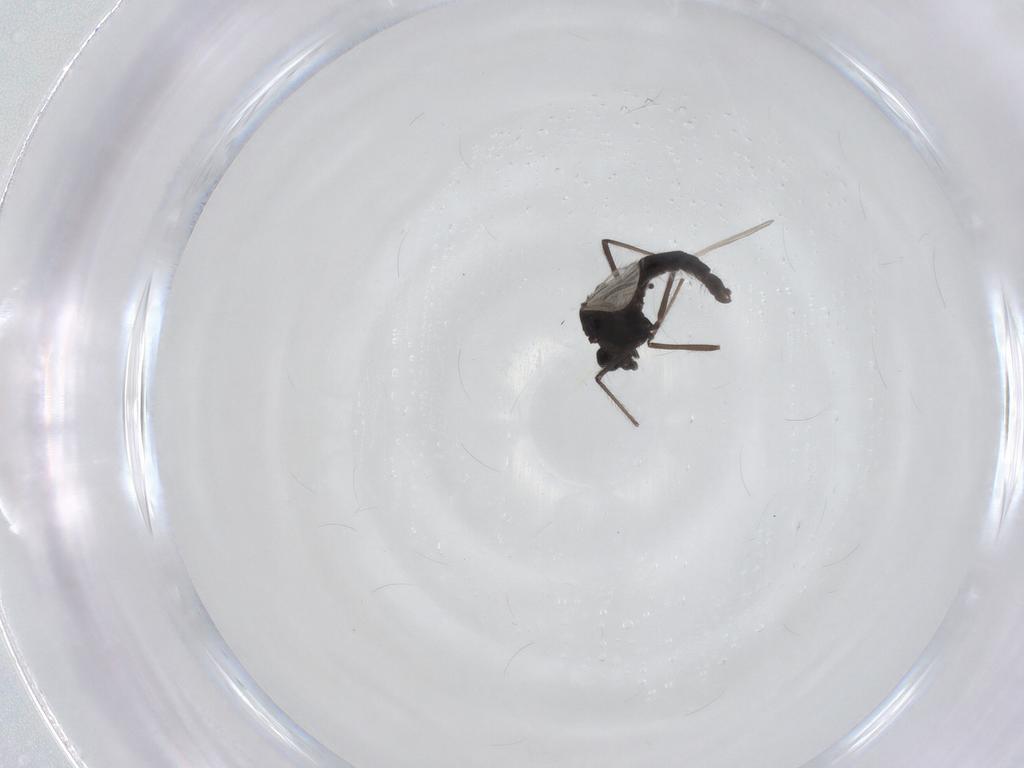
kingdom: Animalia
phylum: Arthropoda
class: Insecta
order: Diptera
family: Chironomidae
